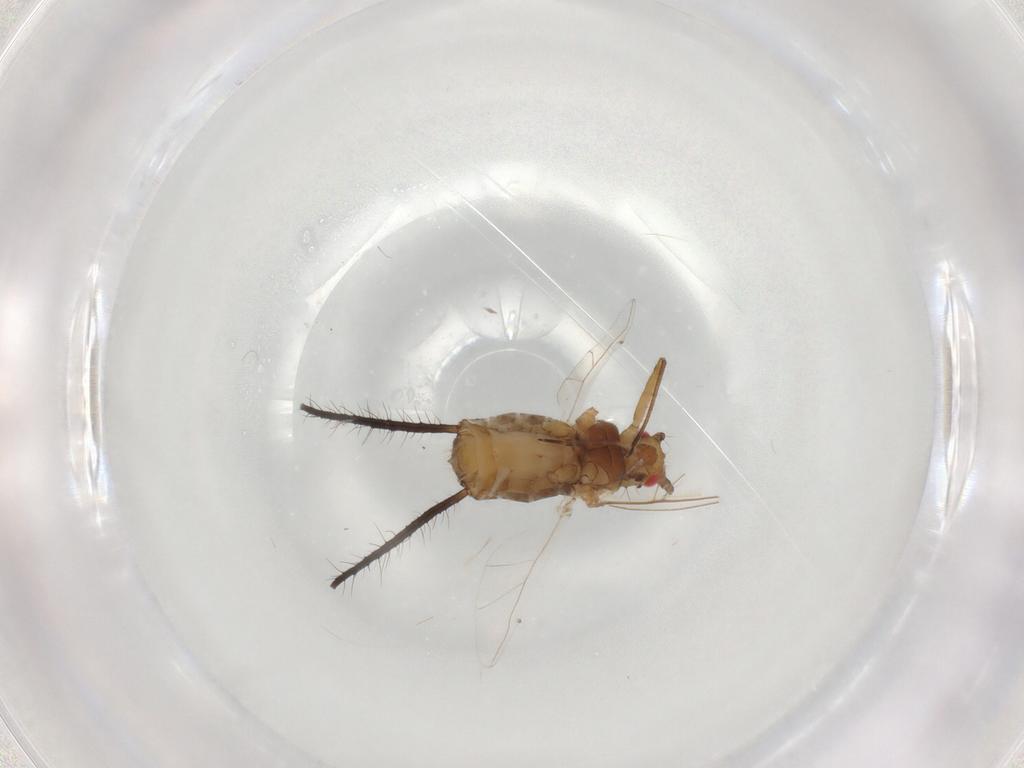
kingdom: Animalia
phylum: Arthropoda
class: Insecta
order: Hemiptera
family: Aphididae
